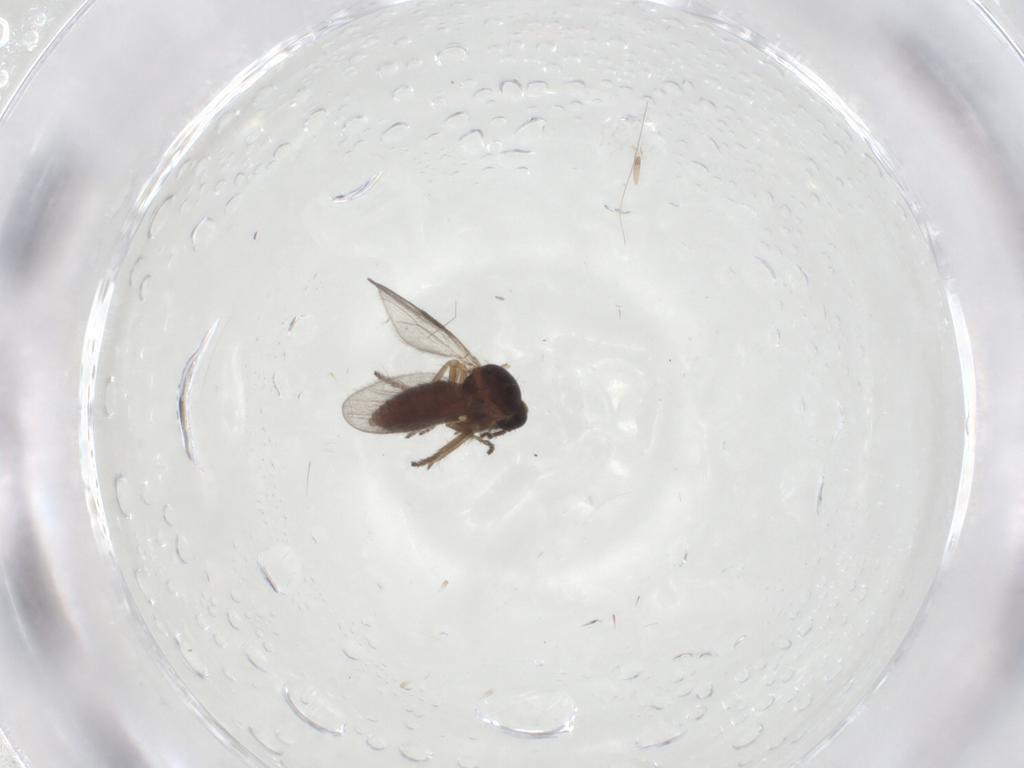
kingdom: Animalia
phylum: Arthropoda
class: Insecta
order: Diptera
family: Ceratopogonidae
